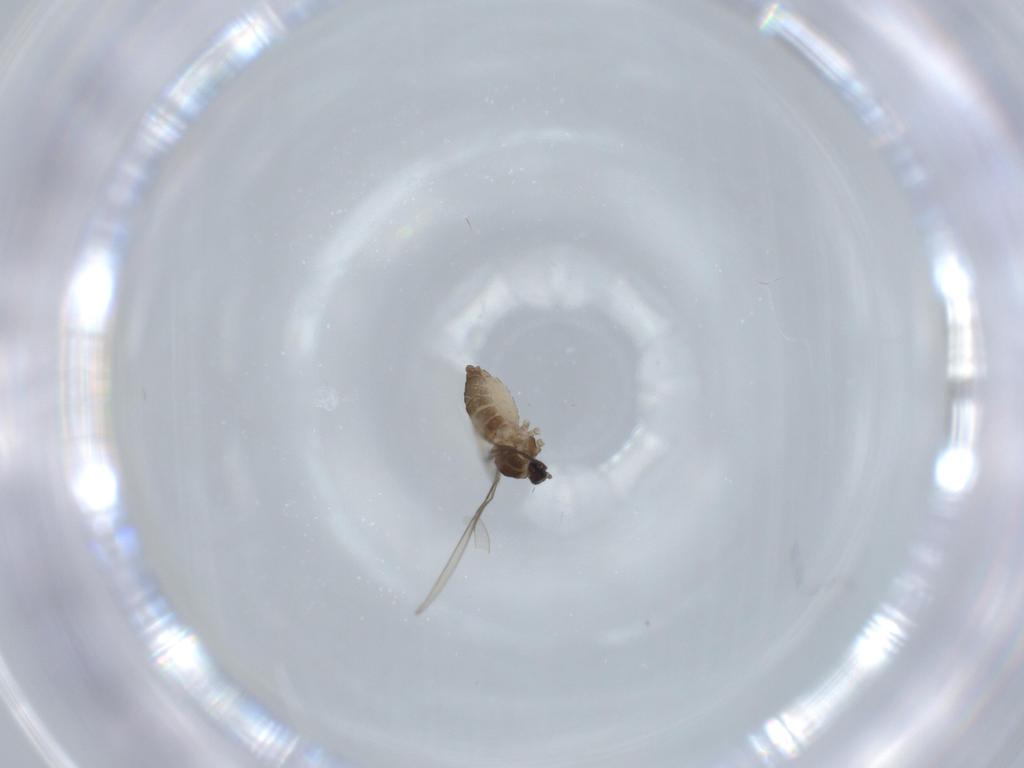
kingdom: Animalia
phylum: Arthropoda
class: Insecta
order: Diptera
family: Cecidomyiidae
